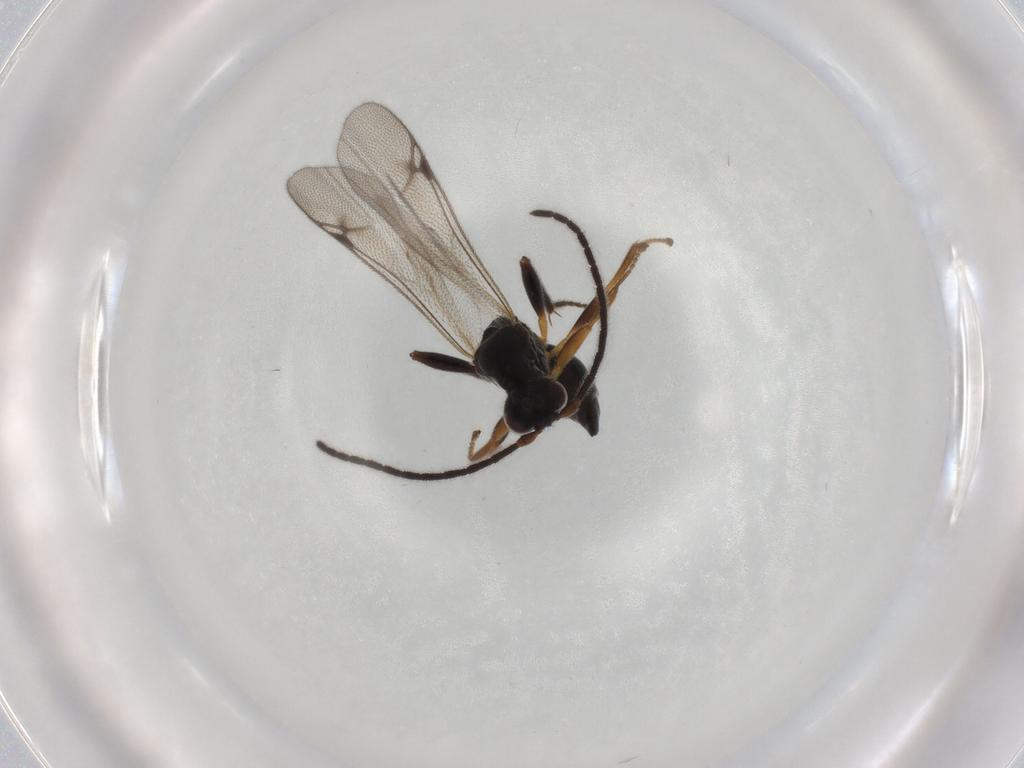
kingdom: Animalia
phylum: Arthropoda
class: Insecta
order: Hymenoptera
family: Proctotrupidae
